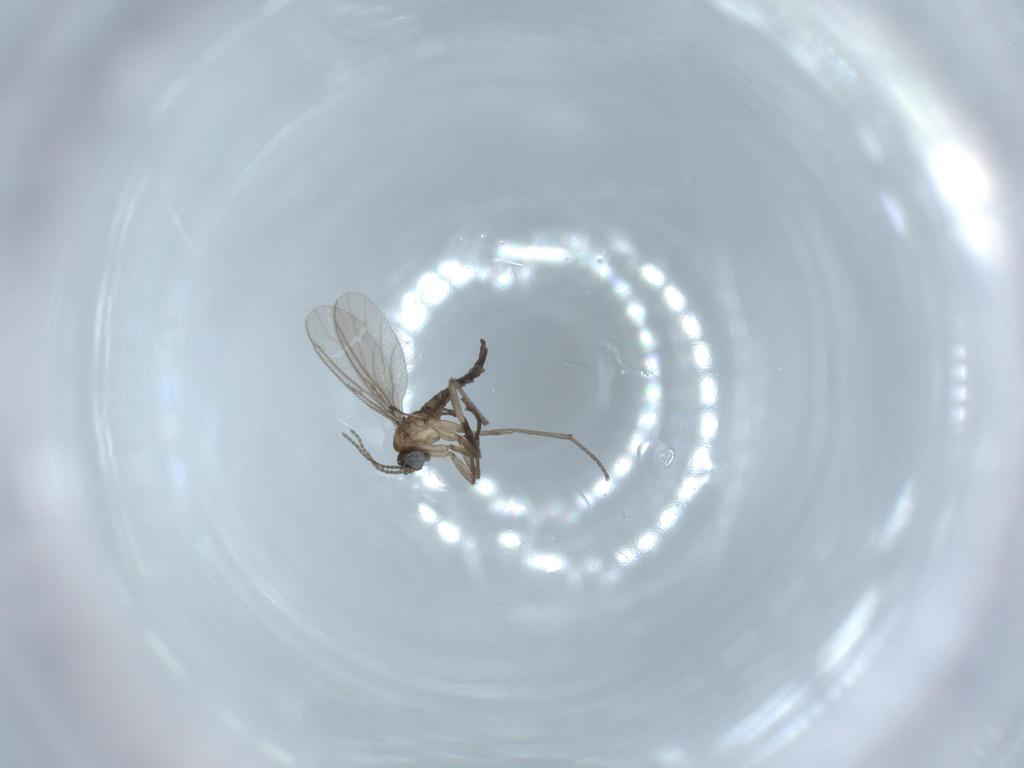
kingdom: Animalia
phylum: Arthropoda
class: Insecta
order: Diptera
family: Sciaridae
